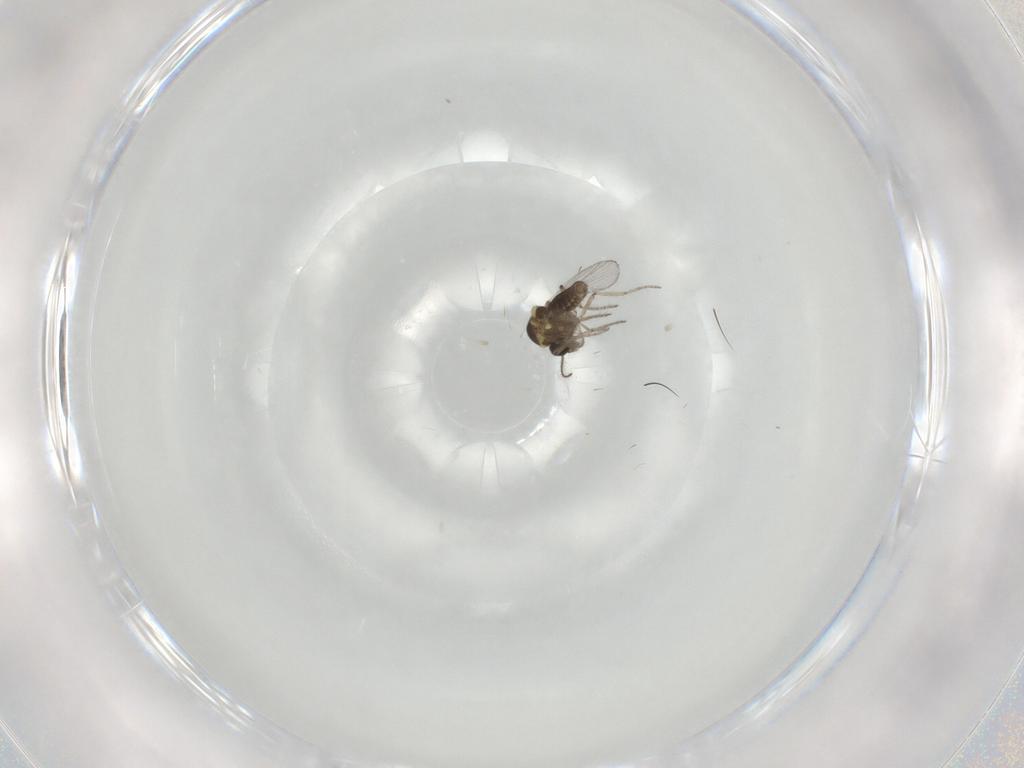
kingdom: Animalia
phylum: Arthropoda
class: Insecta
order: Diptera
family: Ceratopogonidae
